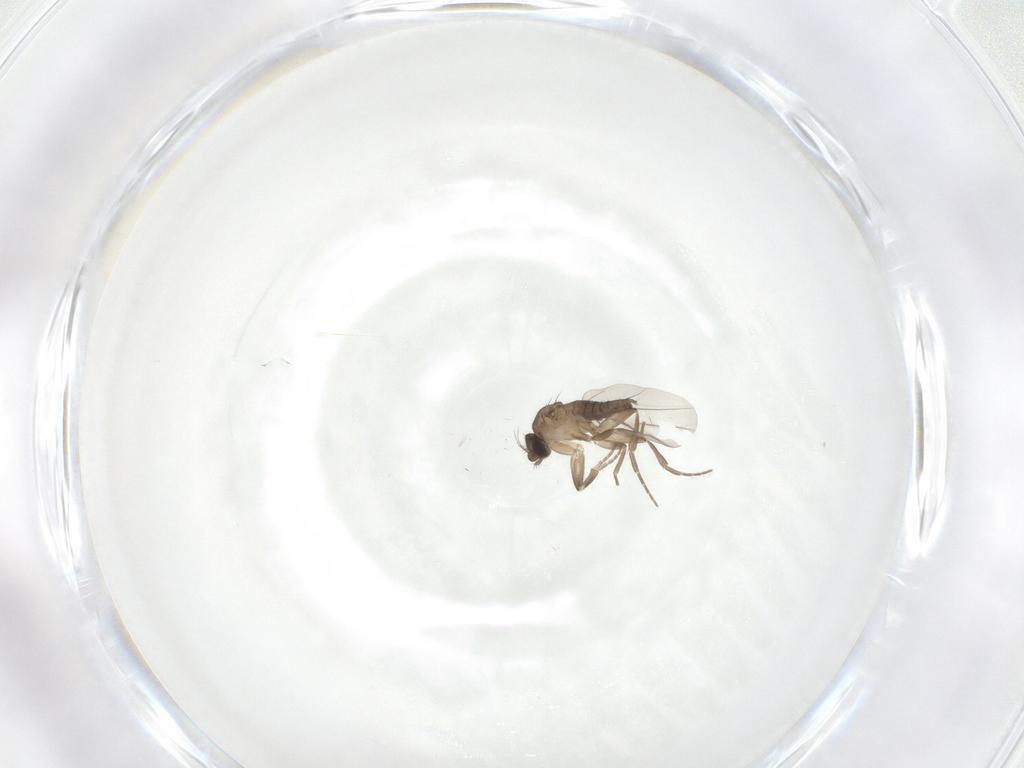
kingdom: Animalia
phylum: Arthropoda
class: Insecta
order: Diptera
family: Phoridae
